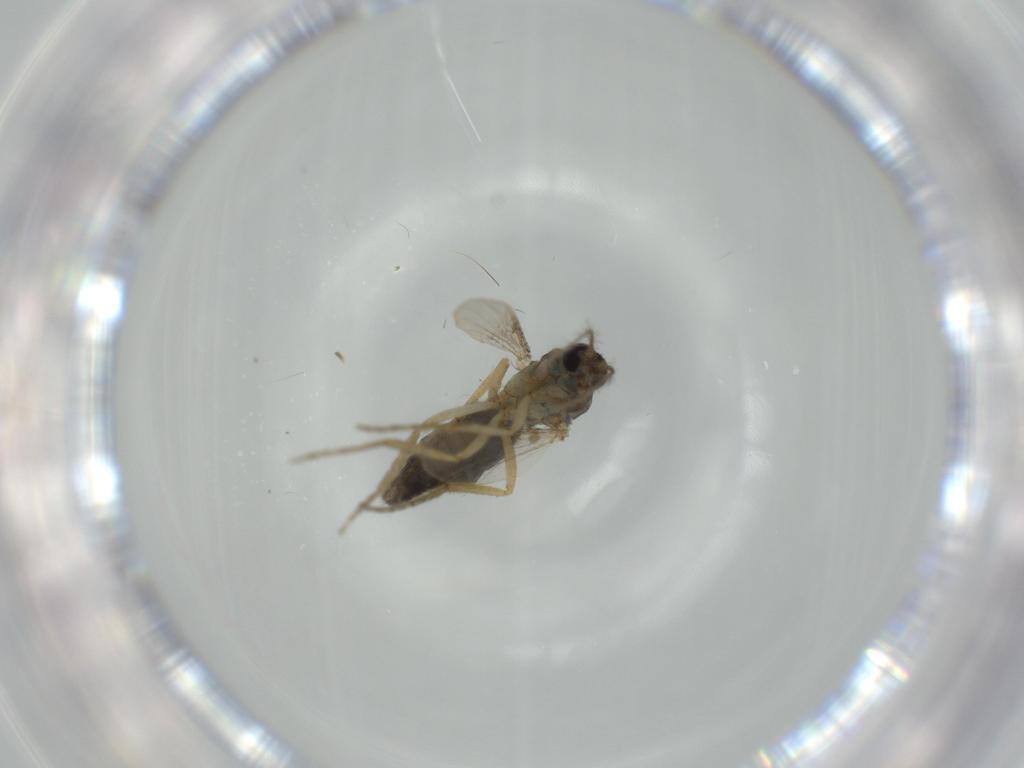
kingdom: Animalia
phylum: Arthropoda
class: Insecta
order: Diptera
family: Ceratopogonidae
